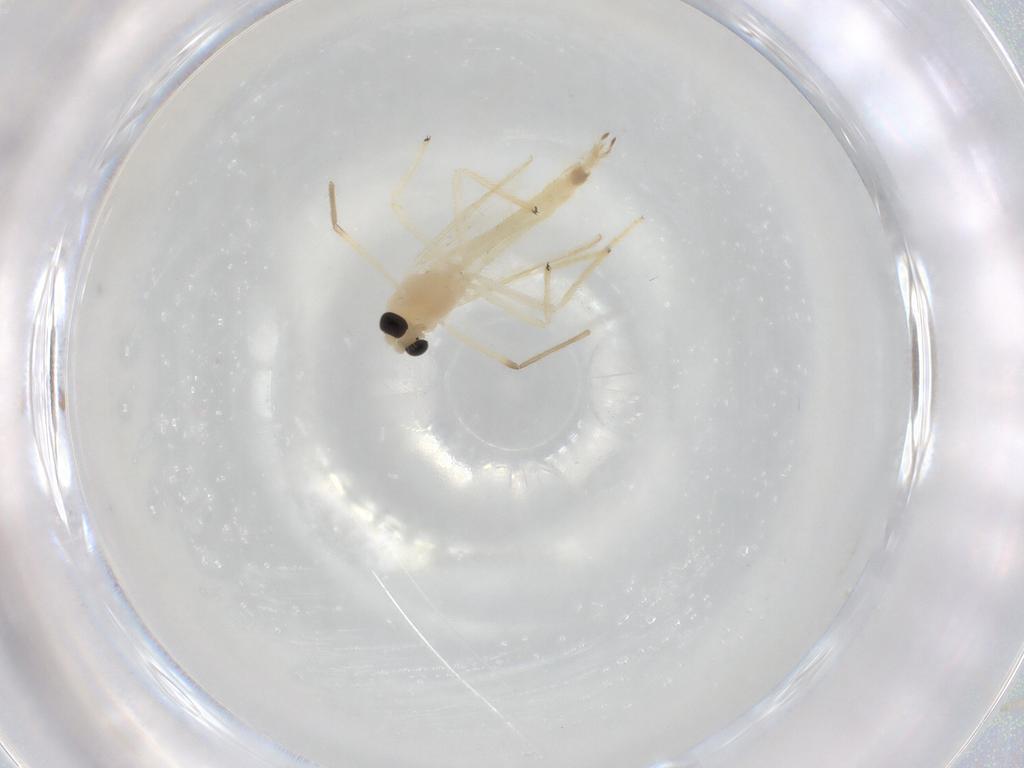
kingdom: Animalia
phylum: Arthropoda
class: Insecta
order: Diptera
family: Chironomidae
